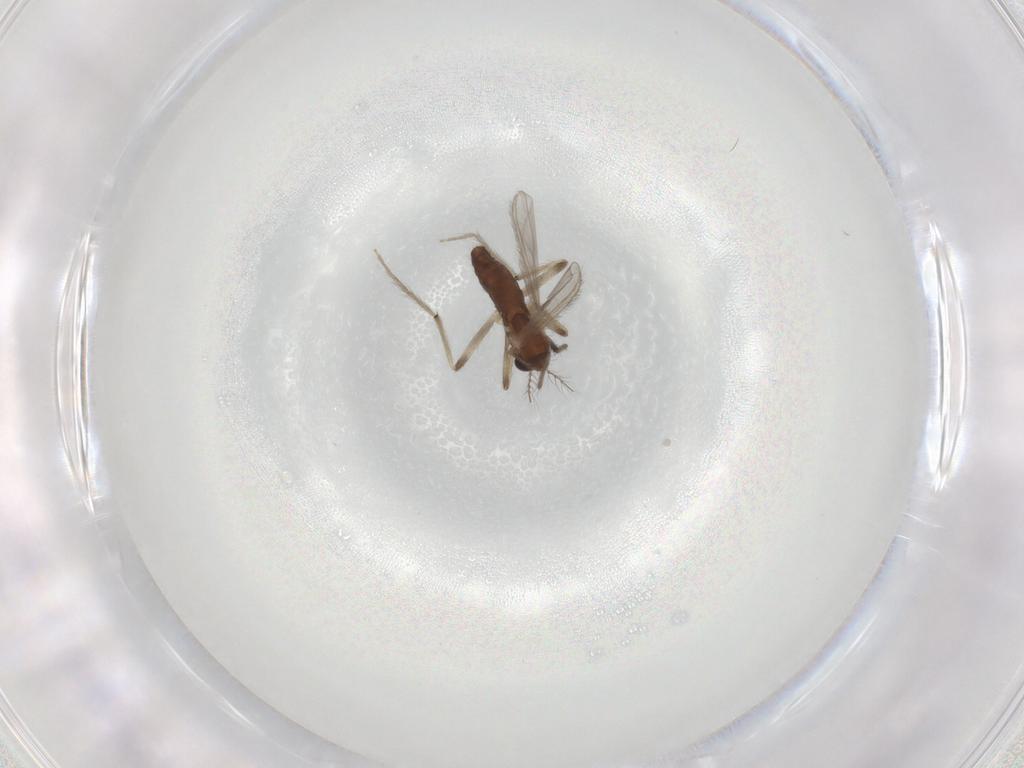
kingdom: Animalia
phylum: Arthropoda
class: Insecta
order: Diptera
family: Chironomidae
